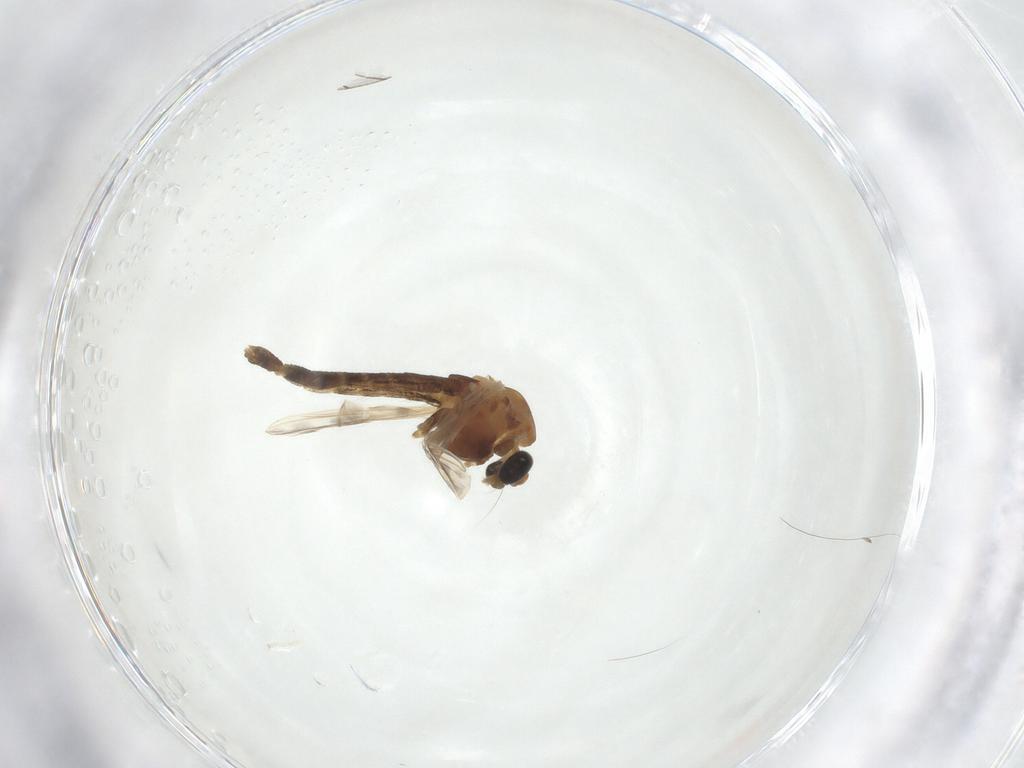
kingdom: Animalia
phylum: Arthropoda
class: Insecta
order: Diptera
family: Chironomidae
